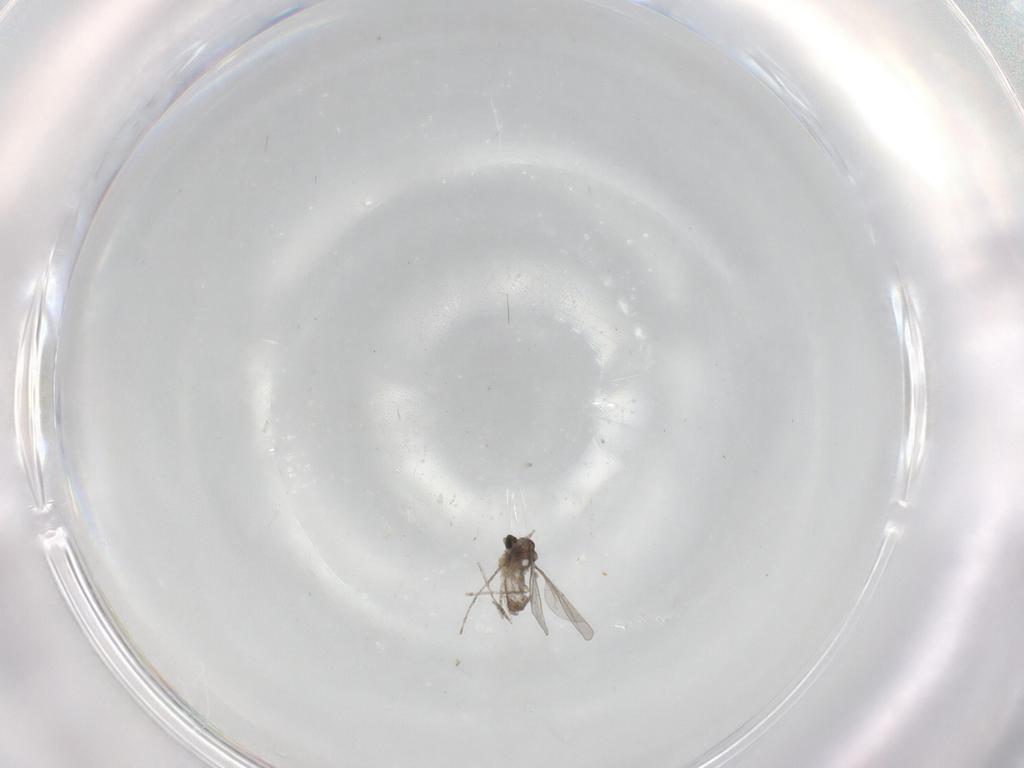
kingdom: Animalia
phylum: Arthropoda
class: Insecta
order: Diptera
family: Cecidomyiidae
